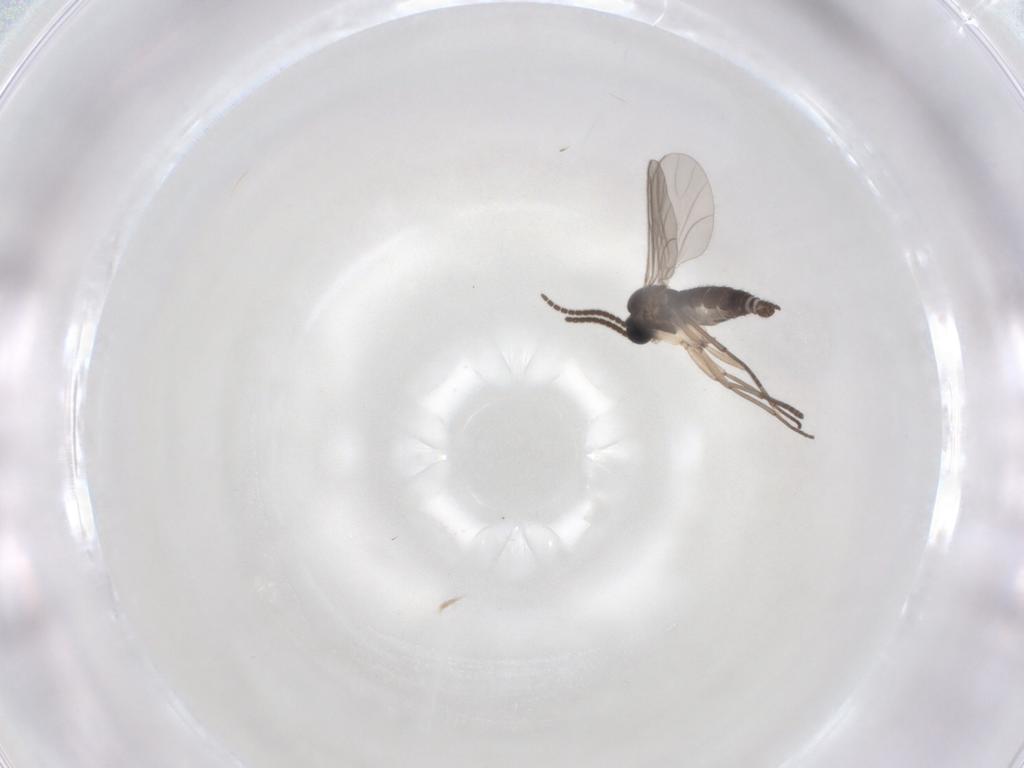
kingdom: Animalia
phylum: Arthropoda
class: Insecta
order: Diptera
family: Sciaridae
